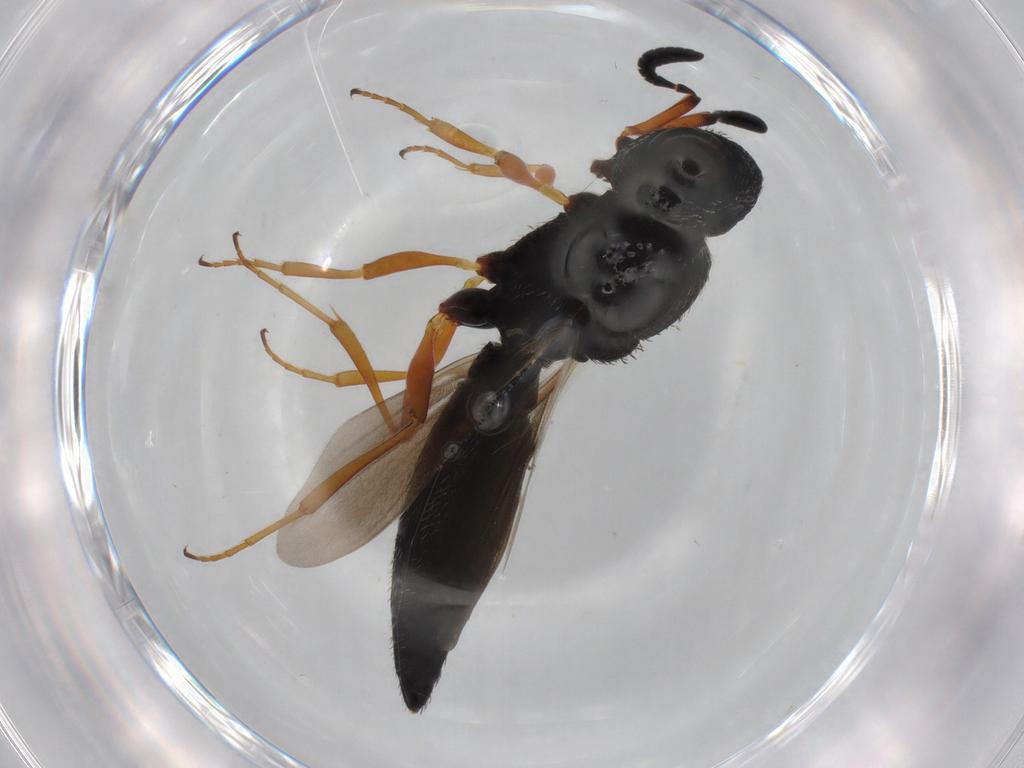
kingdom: Animalia
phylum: Arthropoda
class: Insecta
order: Hymenoptera
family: Scelionidae
